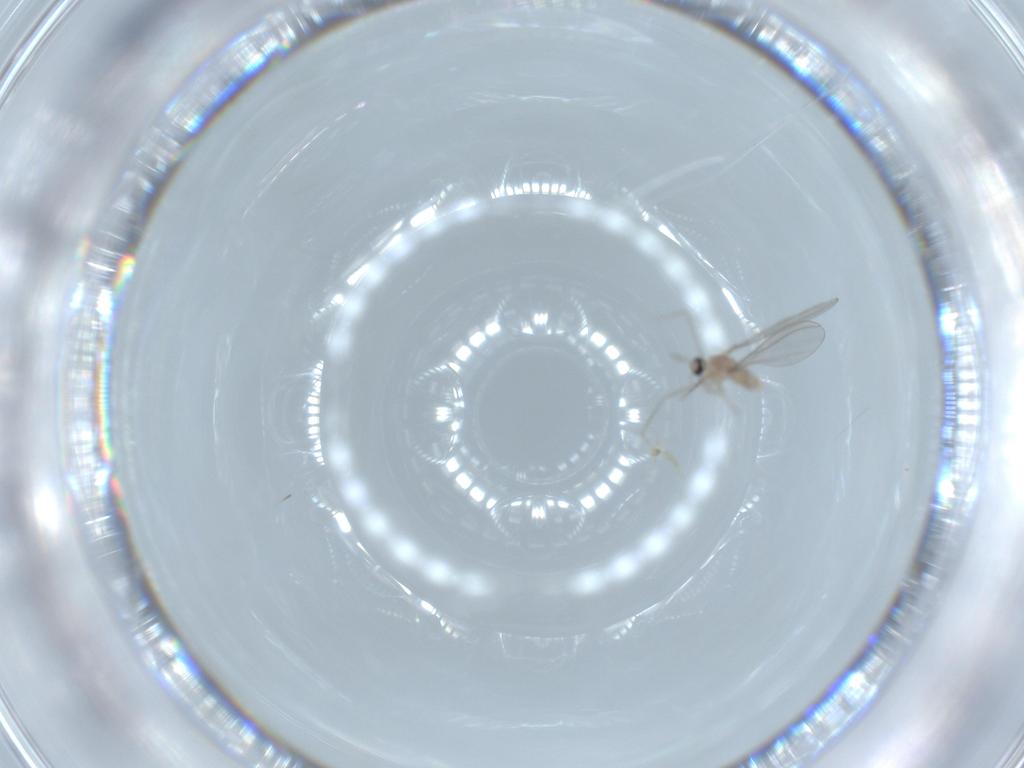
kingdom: Animalia
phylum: Arthropoda
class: Insecta
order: Diptera
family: Cecidomyiidae
